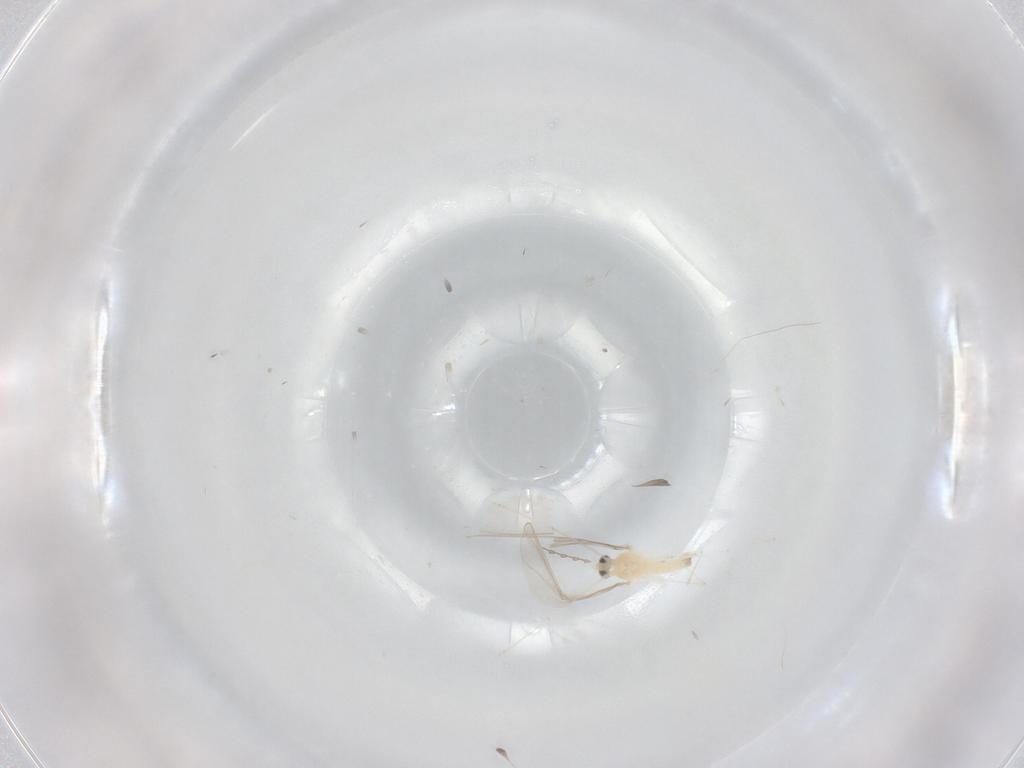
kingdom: Animalia
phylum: Arthropoda
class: Insecta
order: Diptera
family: Cecidomyiidae
